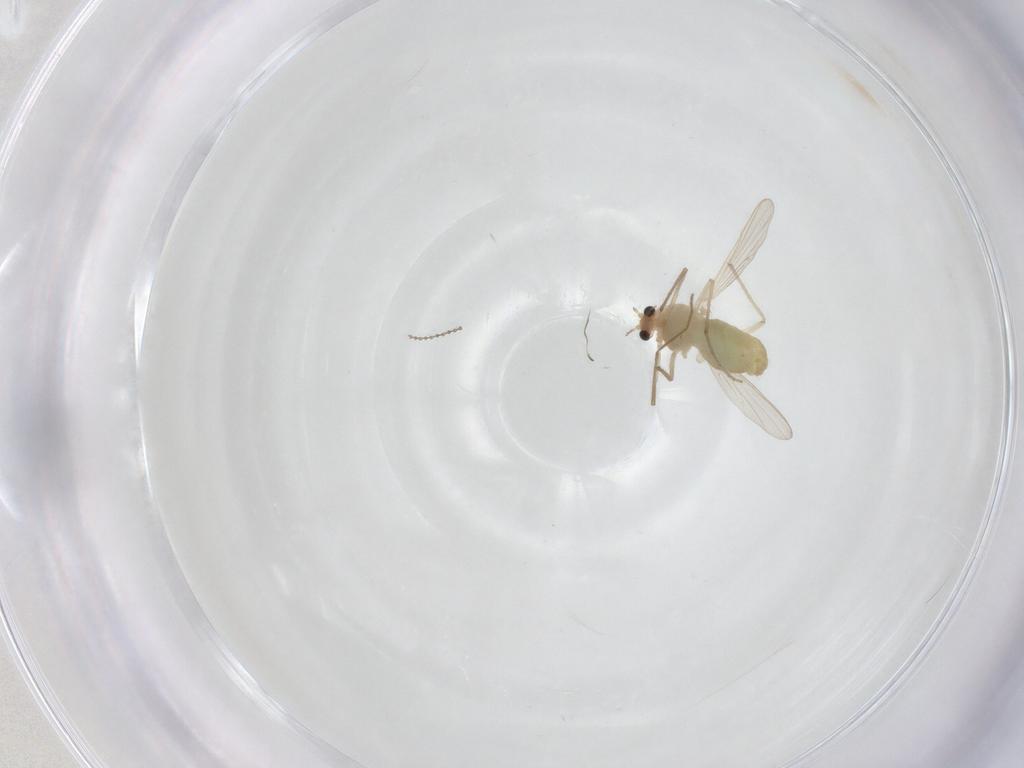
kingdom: Animalia
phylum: Arthropoda
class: Insecta
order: Diptera
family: Chironomidae
